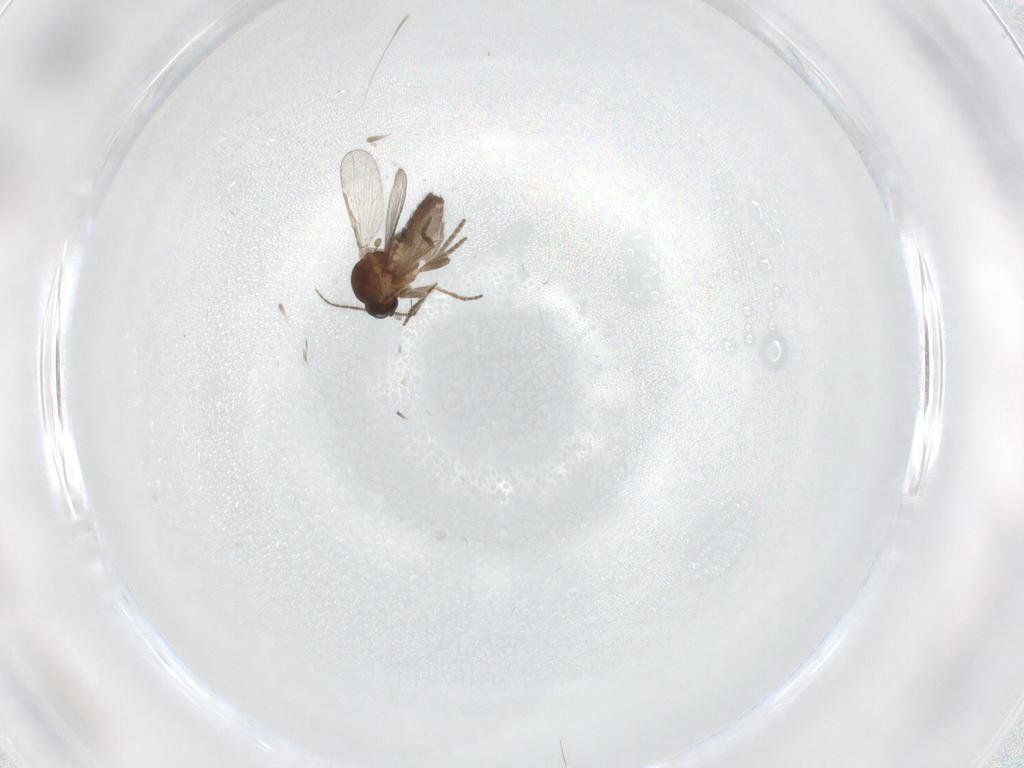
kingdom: Animalia
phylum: Arthropoda
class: Insecta
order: Diptera
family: Ceratopogonidae
